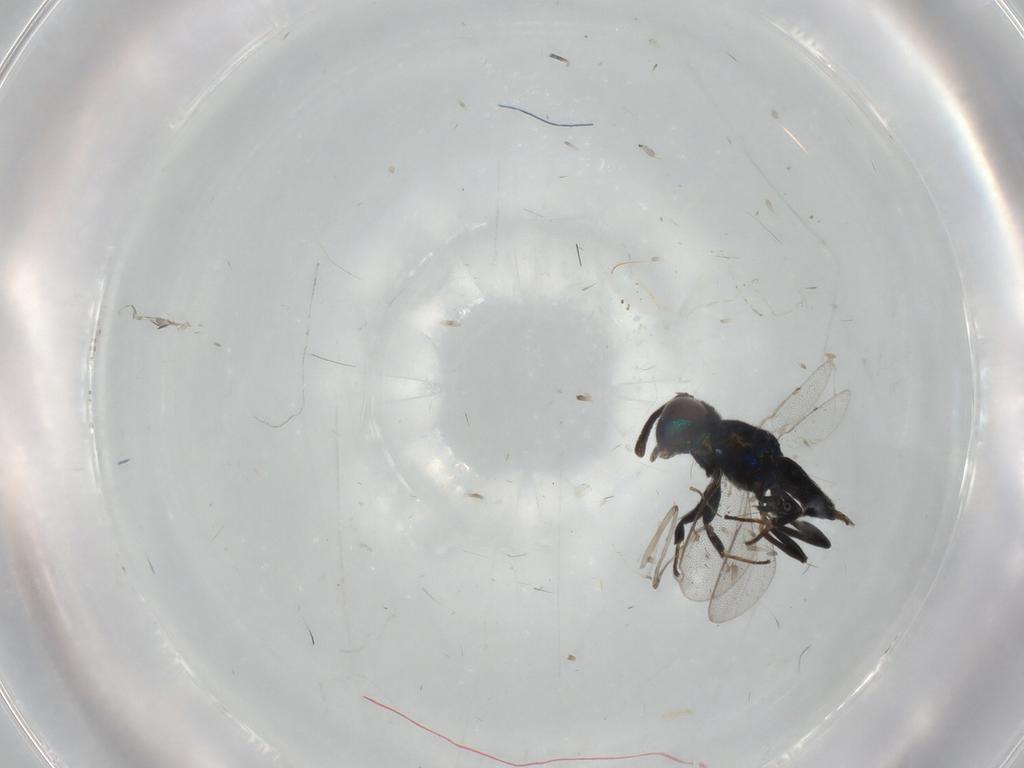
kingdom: Animalia
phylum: Arthropoda
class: Insecta
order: Hymenoptera
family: Eupelmidae
